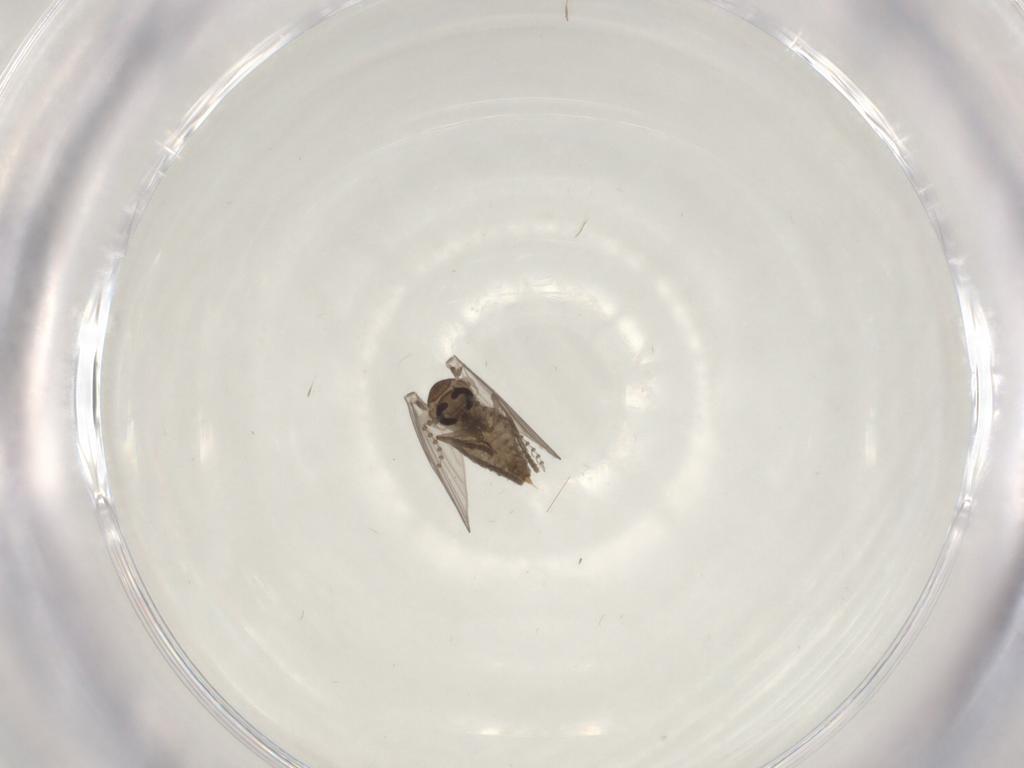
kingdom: Animalia
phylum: Arthropoda
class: Insecta
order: Diptera
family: Psychodidae
